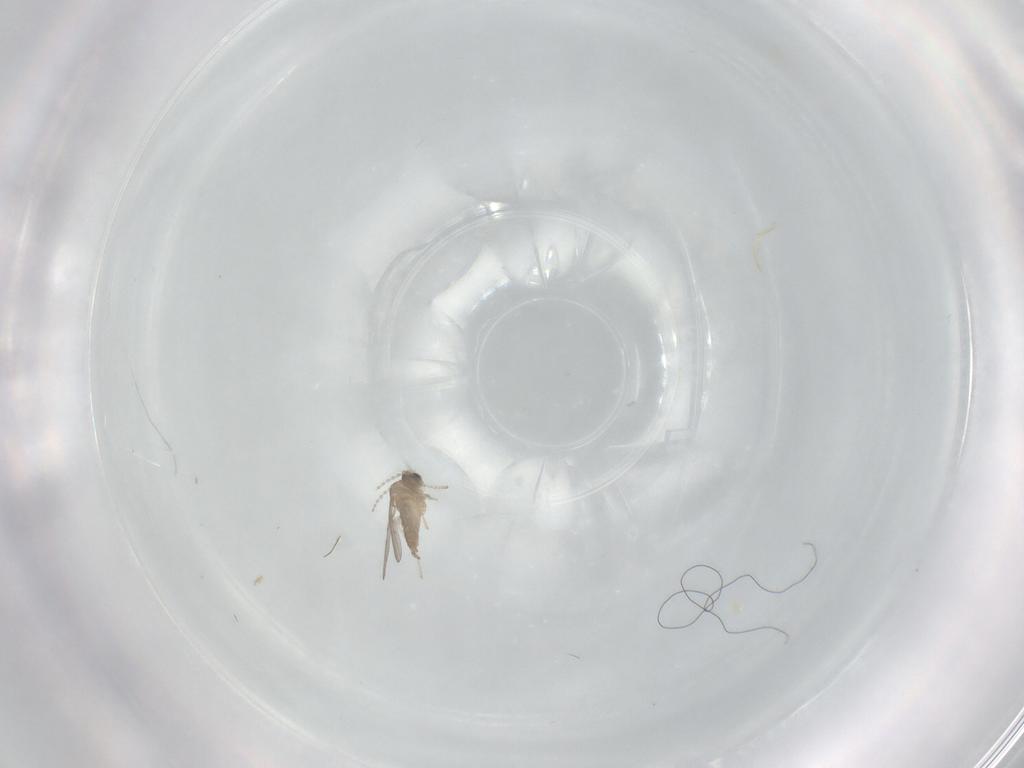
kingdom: Animalia
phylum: Arthropoda
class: Insecta
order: Diptera
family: Cecidomyiidae
